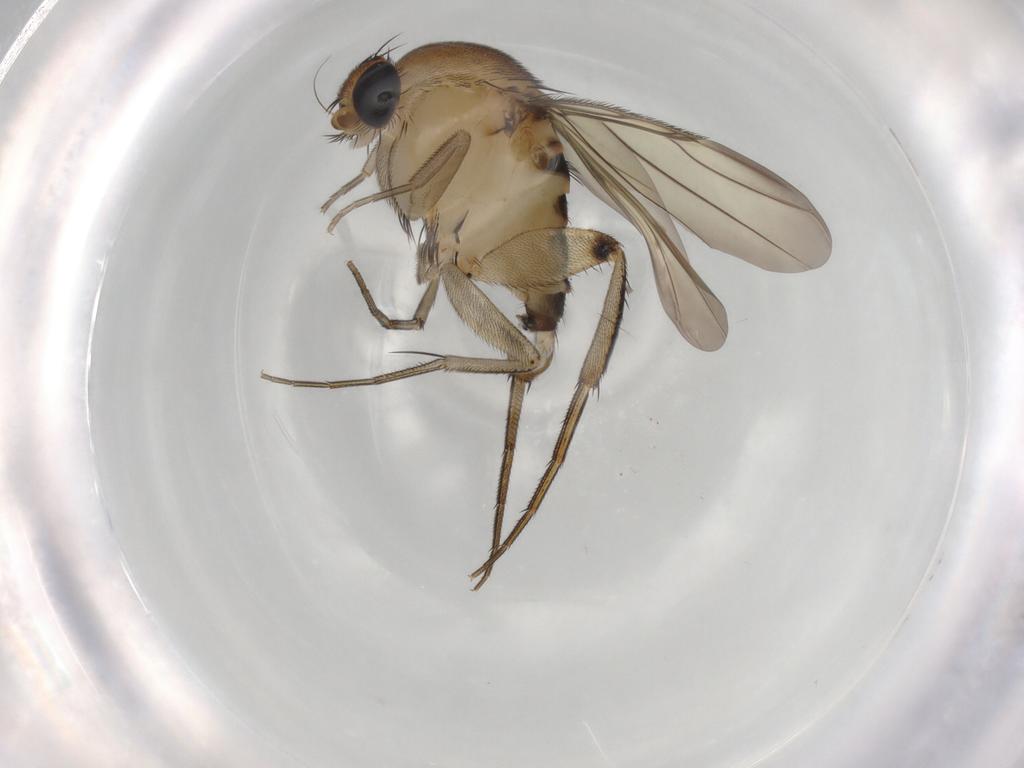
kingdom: Animalia
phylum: Arthropoda
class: Insecta
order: Diptera
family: Phoridae
